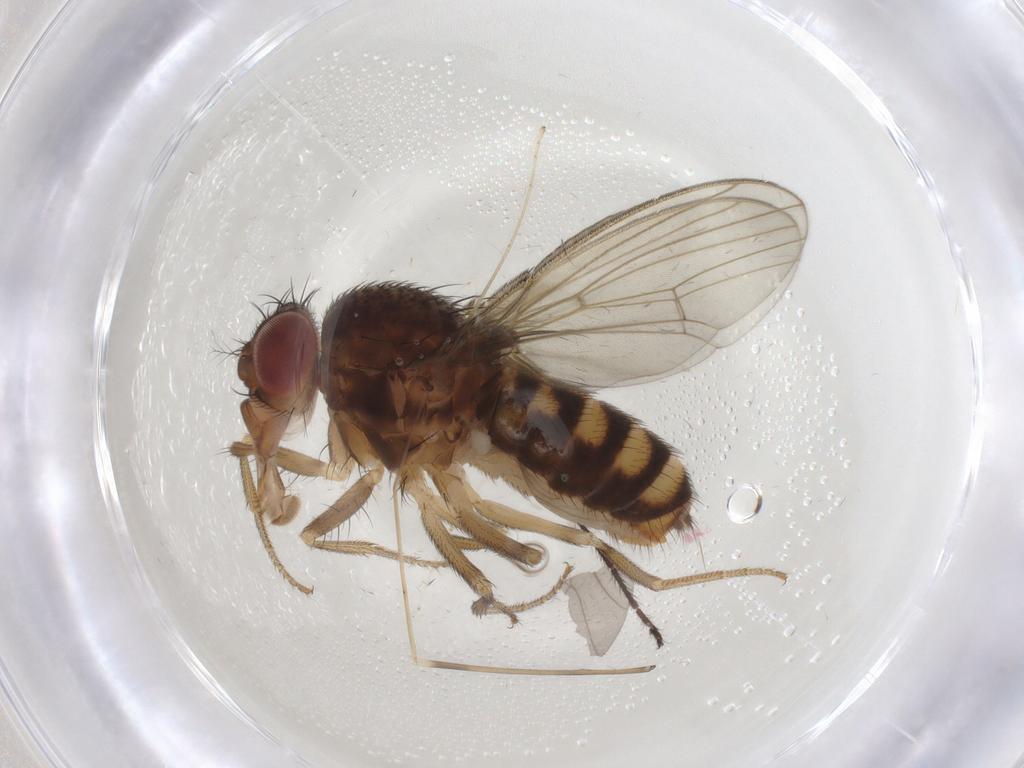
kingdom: Animalia
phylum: Arthropoda
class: Insecta
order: Diptera
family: Drosophilidae
